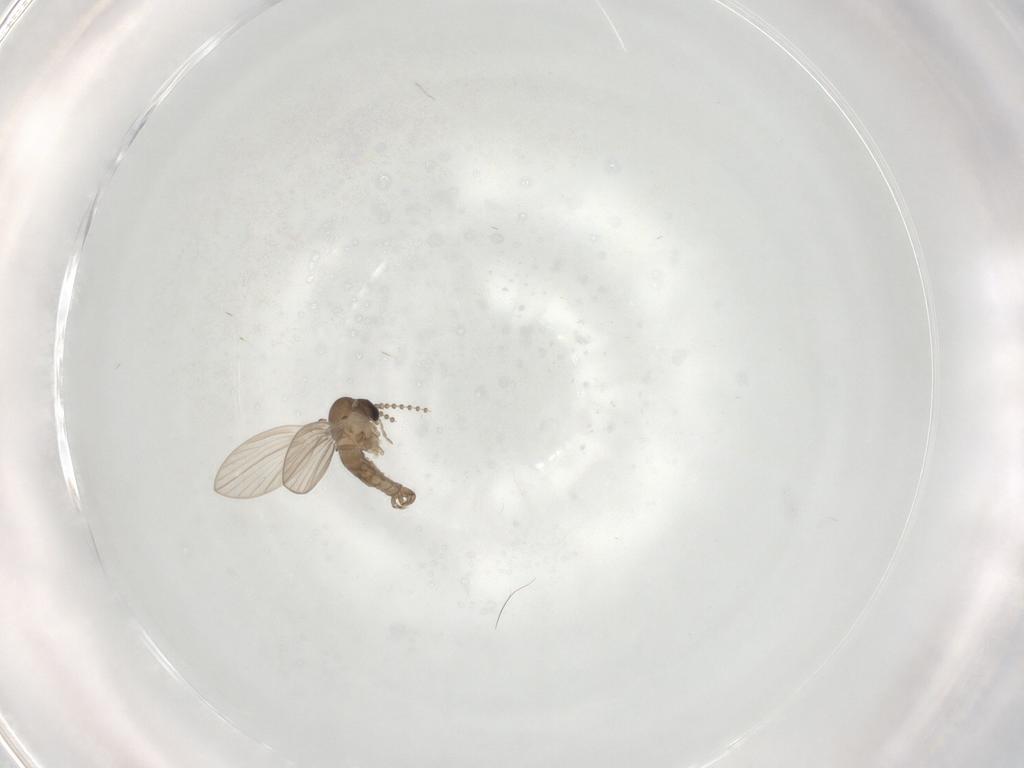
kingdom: Animalia
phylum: Arthropoda
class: Insecta
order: Diptera
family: Psychodidae
